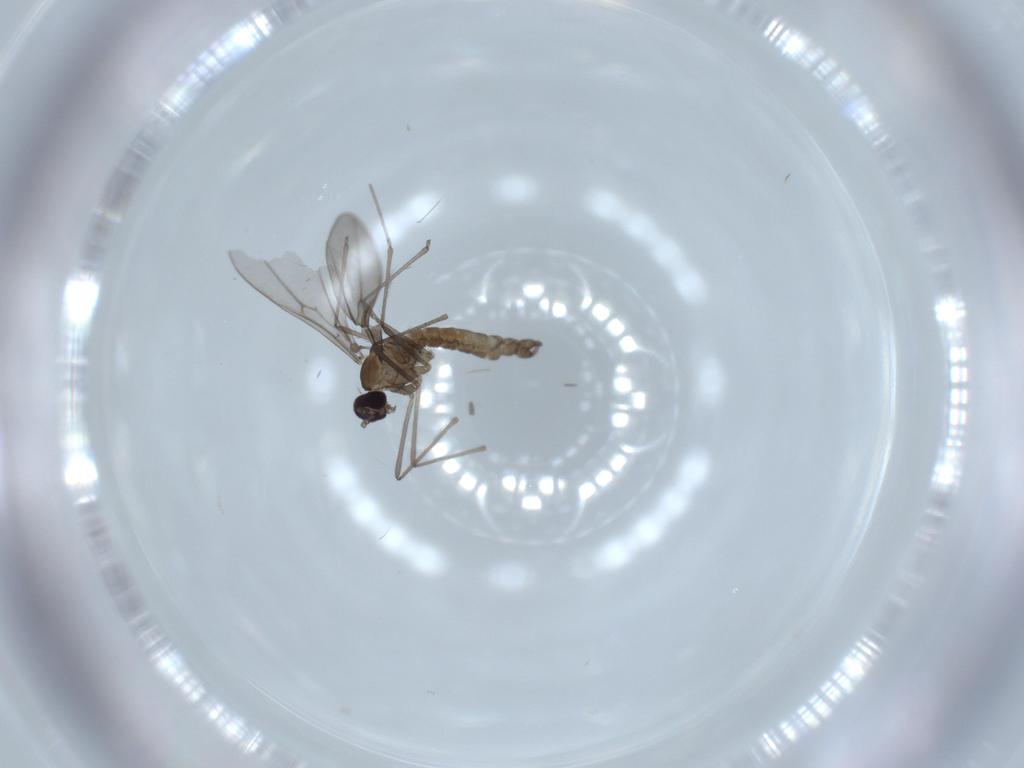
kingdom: Animalia
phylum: Arthropoda
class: Insecta
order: Diptera
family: Cecidomyiidae
